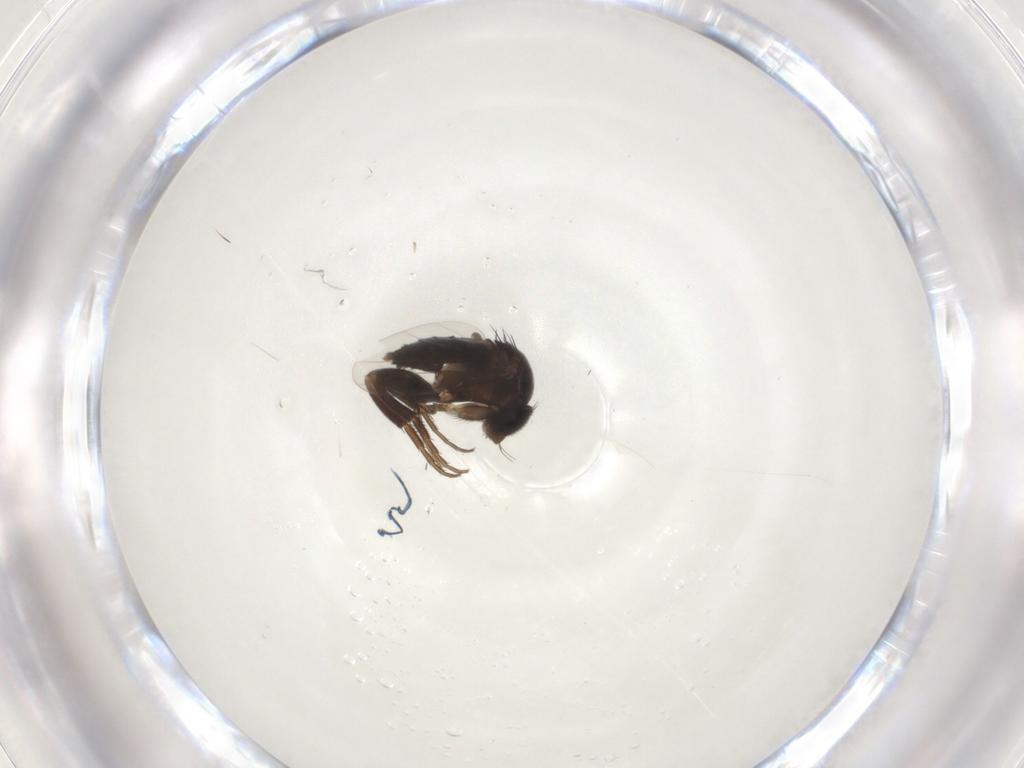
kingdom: Animalia
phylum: Arthropoda
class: Insecta
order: Diptera
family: Phoridae
